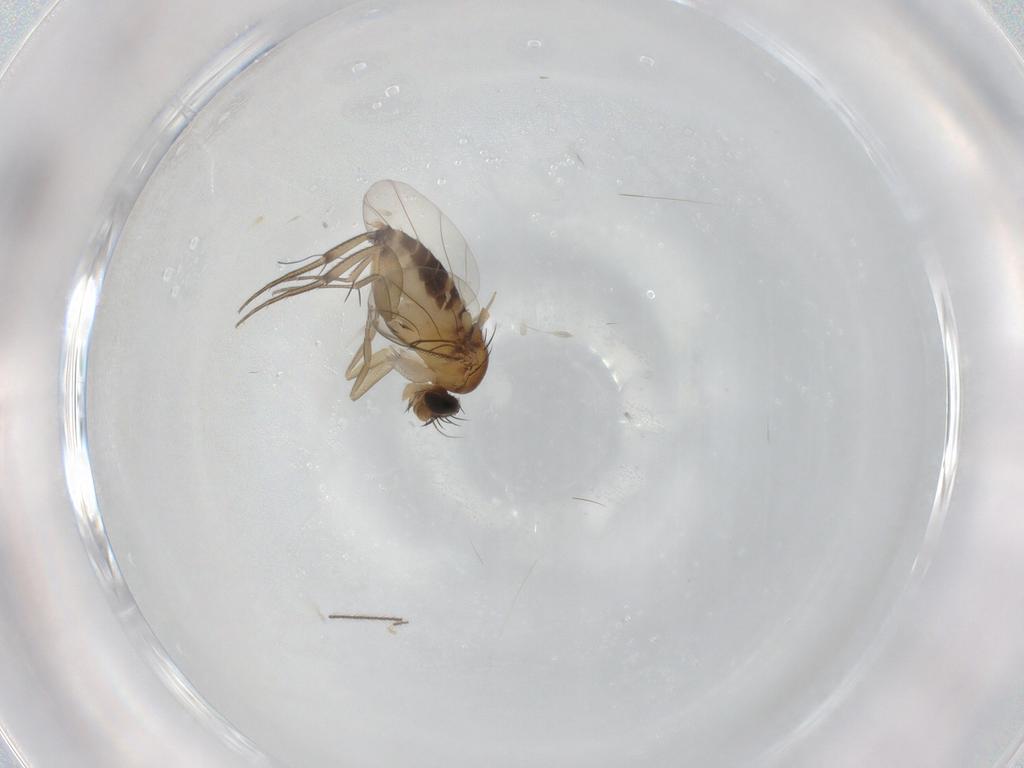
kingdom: Animalia
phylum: Arthropoda
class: Insecta
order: Diptera
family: Phoridae
